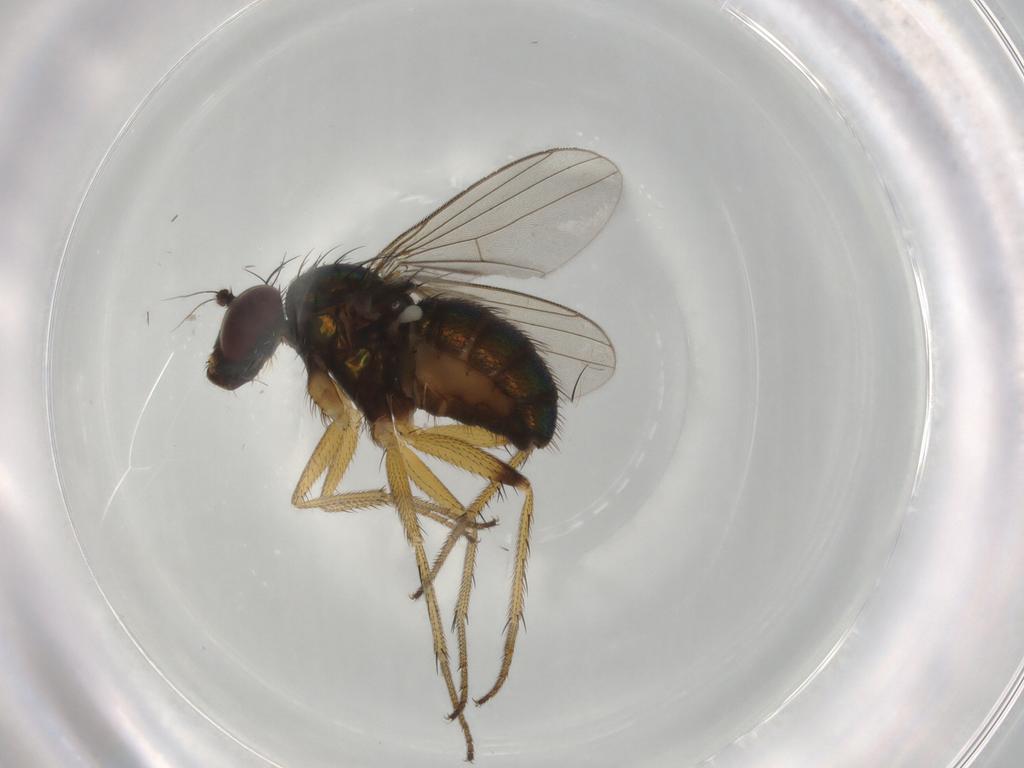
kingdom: Animalia
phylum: Arthropoda
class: Insecta
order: Diptera
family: Dolichopodidae
